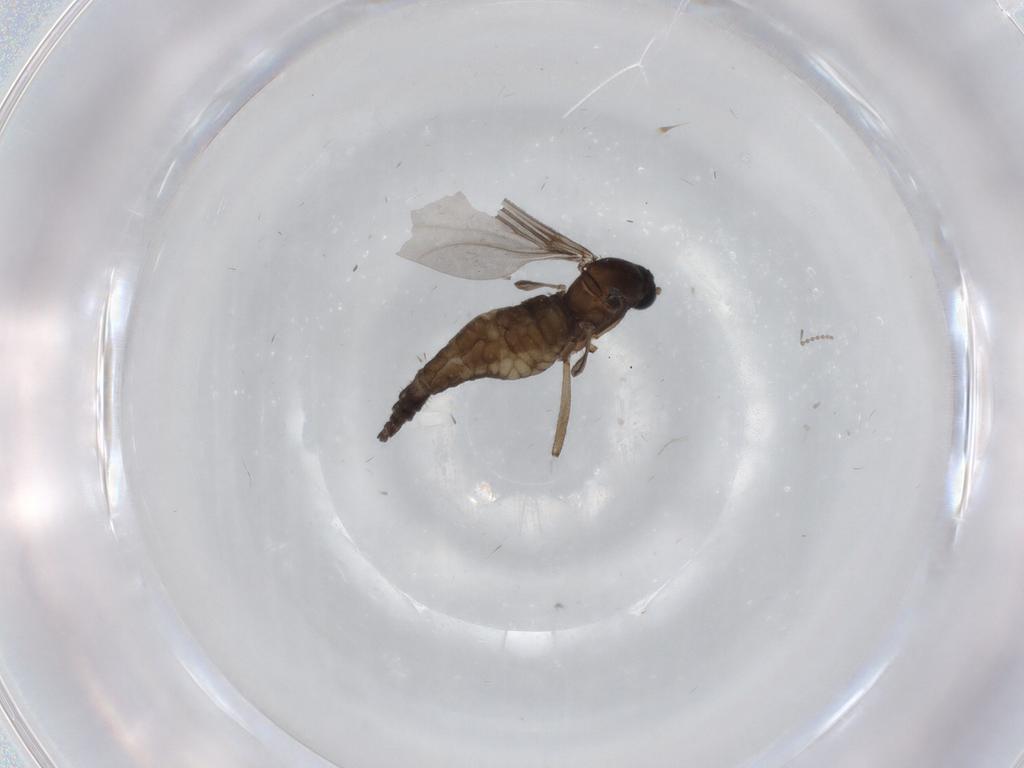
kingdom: Animalia
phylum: Arthropoda
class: Insecta
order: Diptera
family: Sciaridae
